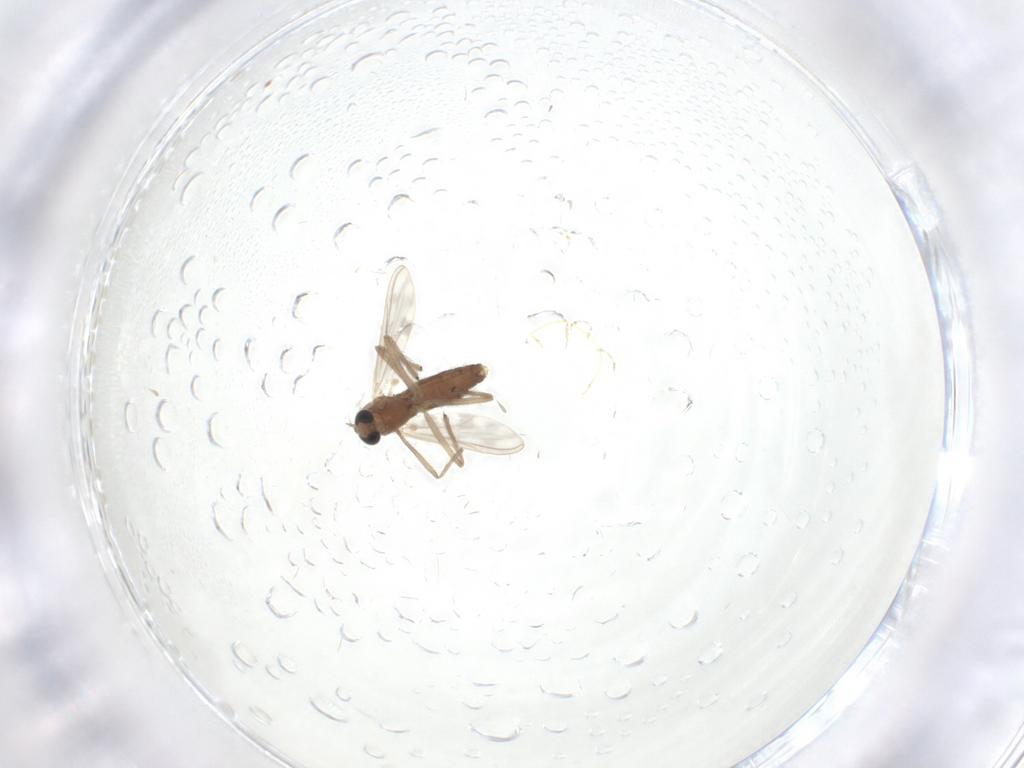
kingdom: Animalia
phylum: Arthropoda
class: Insecta
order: Diptera
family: Chironomidae
